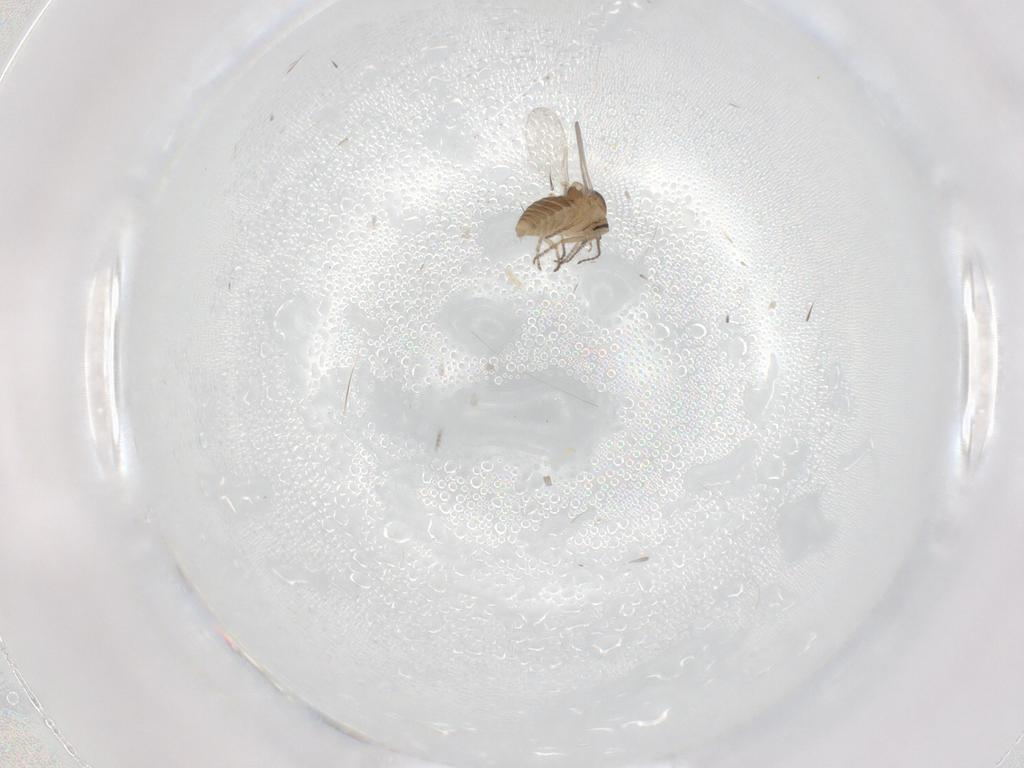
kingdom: Animalia
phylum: Arthropoda
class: Insecta
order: Diptera
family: Ceratopogonidae
